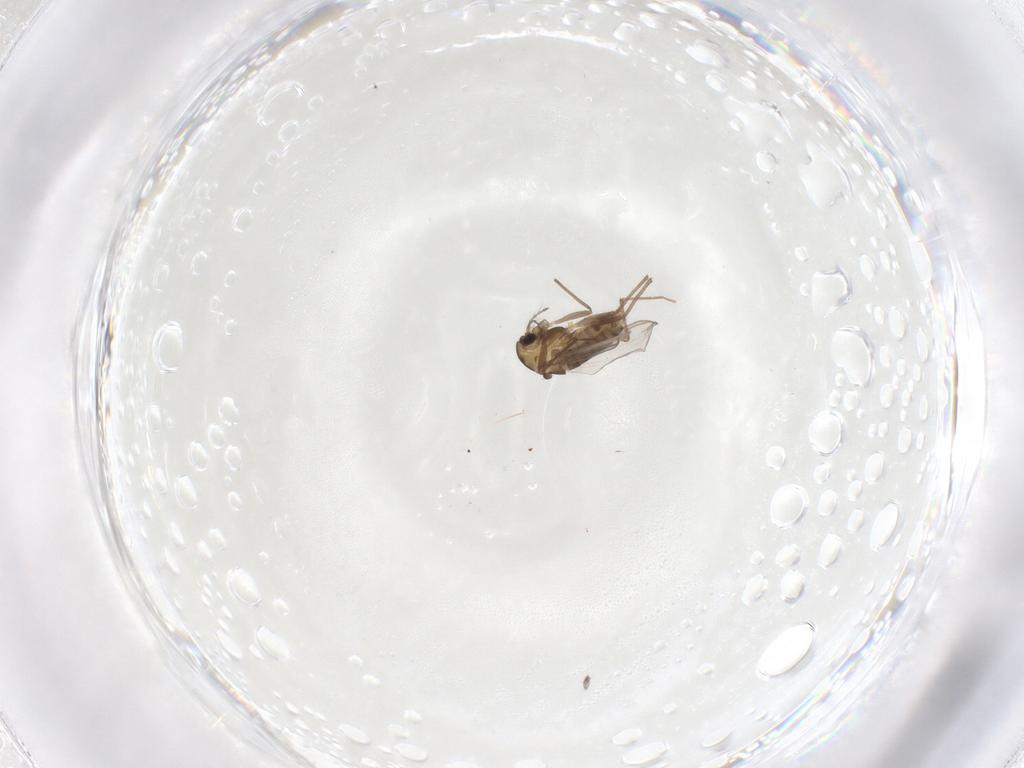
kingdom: Animalia
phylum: Arthropoda
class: Insecta
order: Diptera
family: Chironomidae
